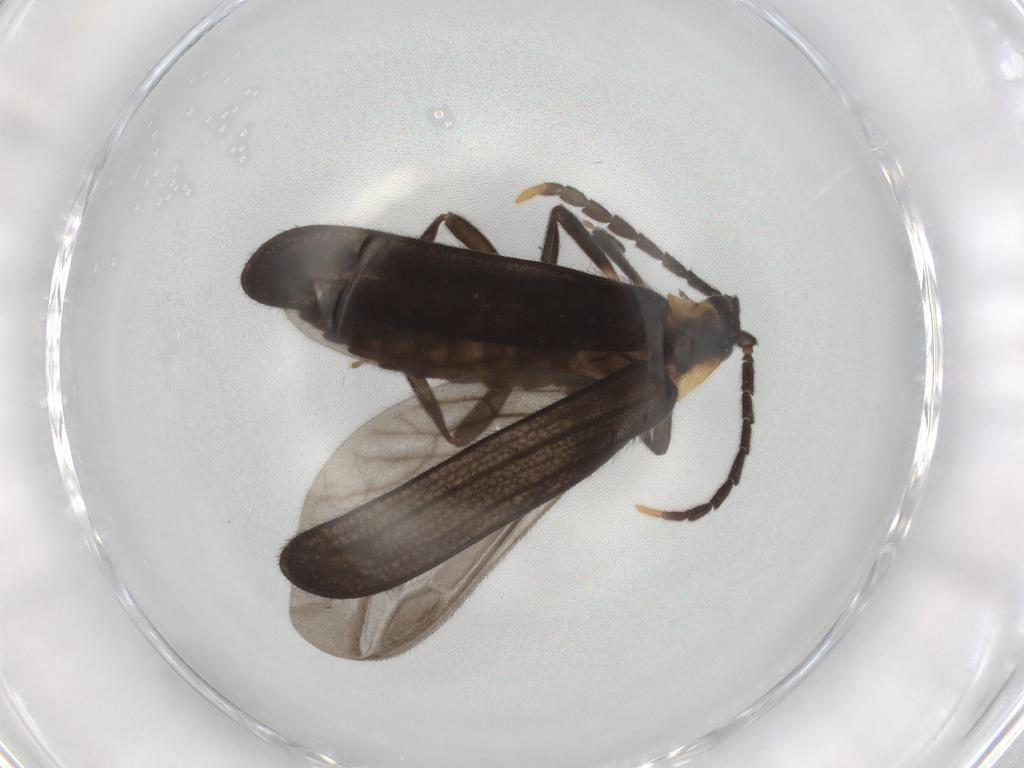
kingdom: Animalia
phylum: Arthropoda
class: Insecta
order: Coleoptera
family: Lycidae
